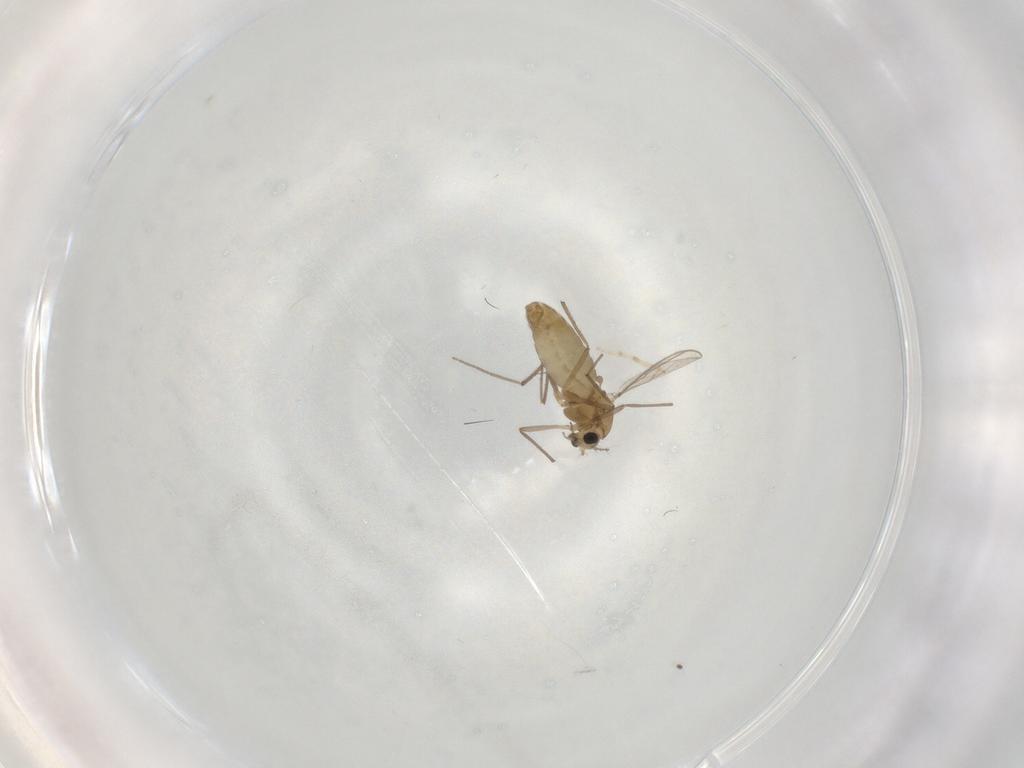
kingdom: Animalia
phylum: Arthropoda
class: Insecta
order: Diptera
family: Chironomidae
